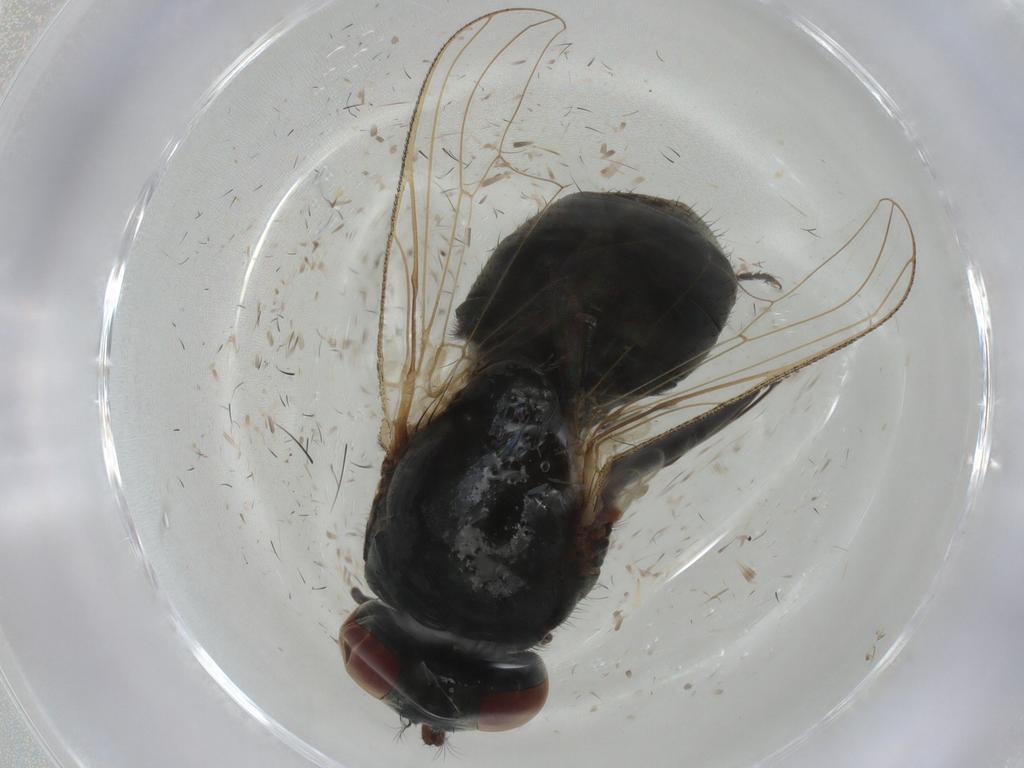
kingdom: Animalia
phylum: Arthropoda
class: Insecta
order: Diptera
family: Muscidae
